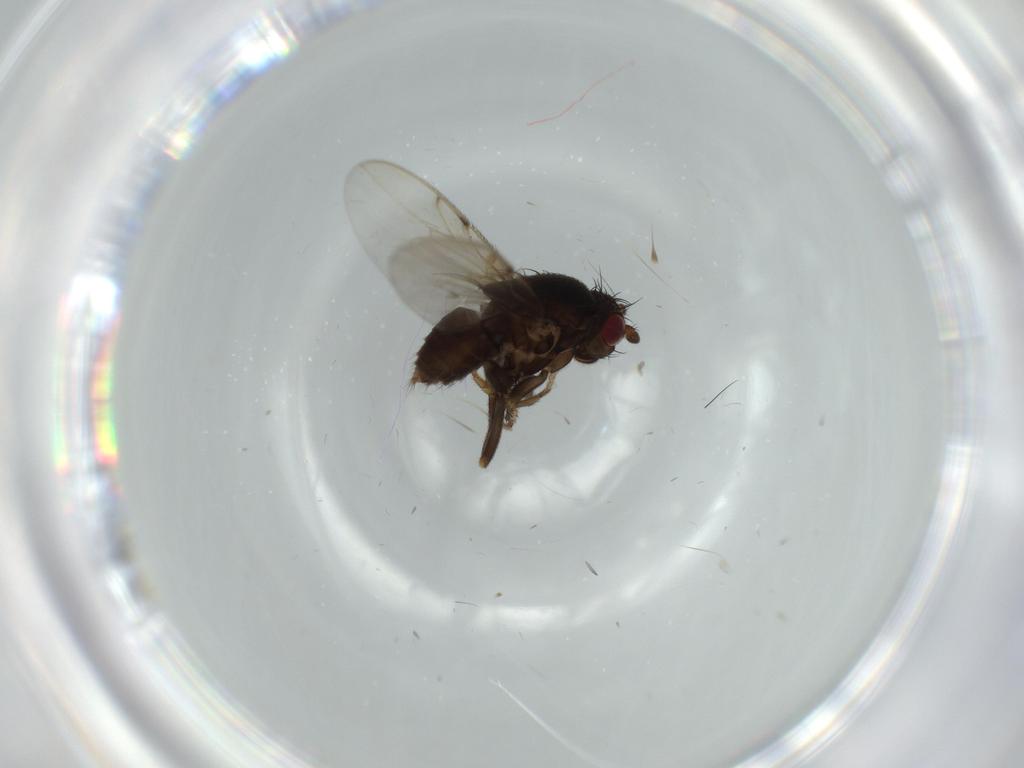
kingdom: Animalia
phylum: Arthropoda
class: Insecta
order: Diptera
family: Sphaeroceridae
